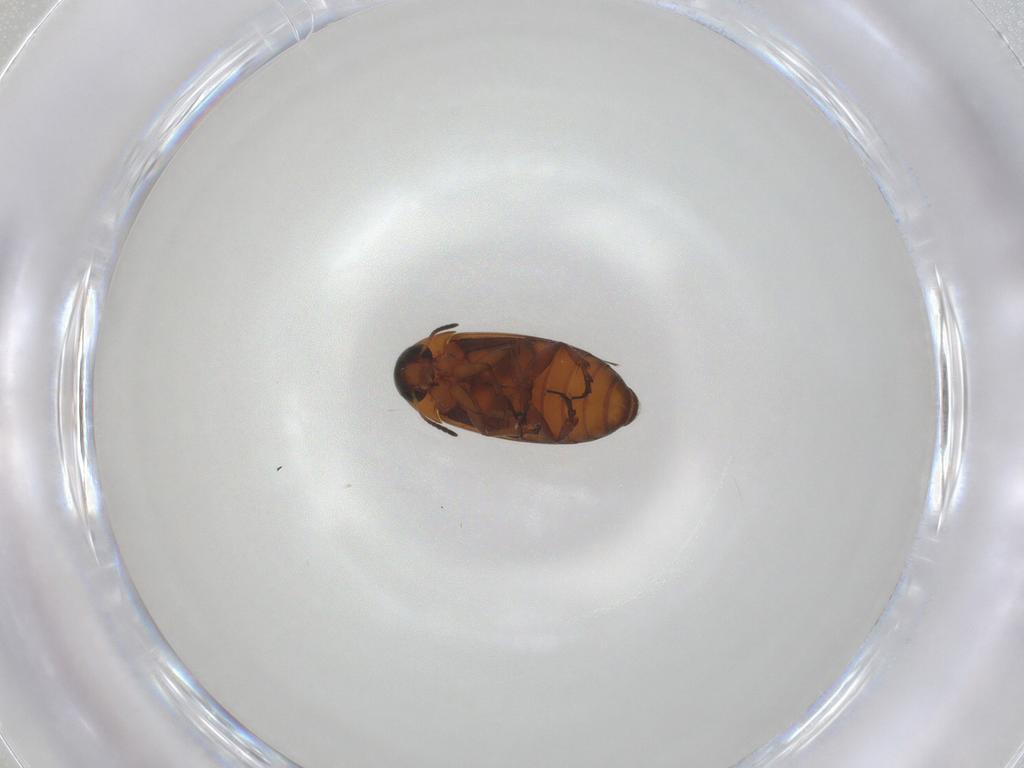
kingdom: Animalia
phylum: Arthropoda
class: Insecta
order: Coleoptera
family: Scraptiidae
